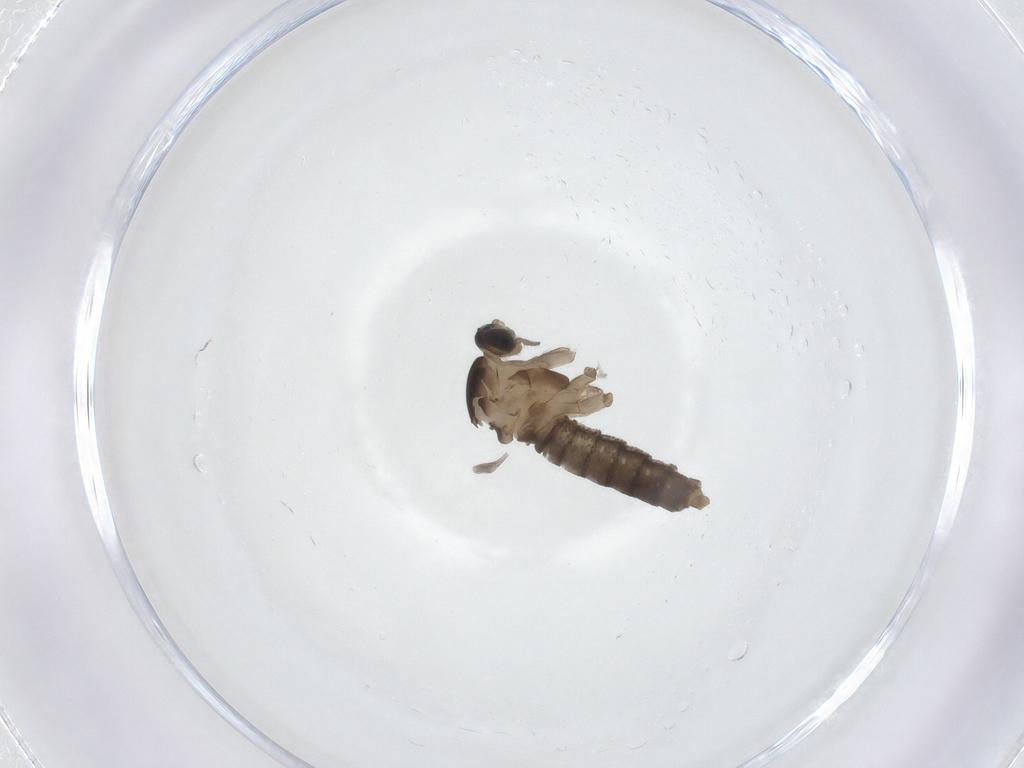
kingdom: Animalia
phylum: Arthropoda
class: Insecta
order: Diptera
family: Cecidomyiidae
